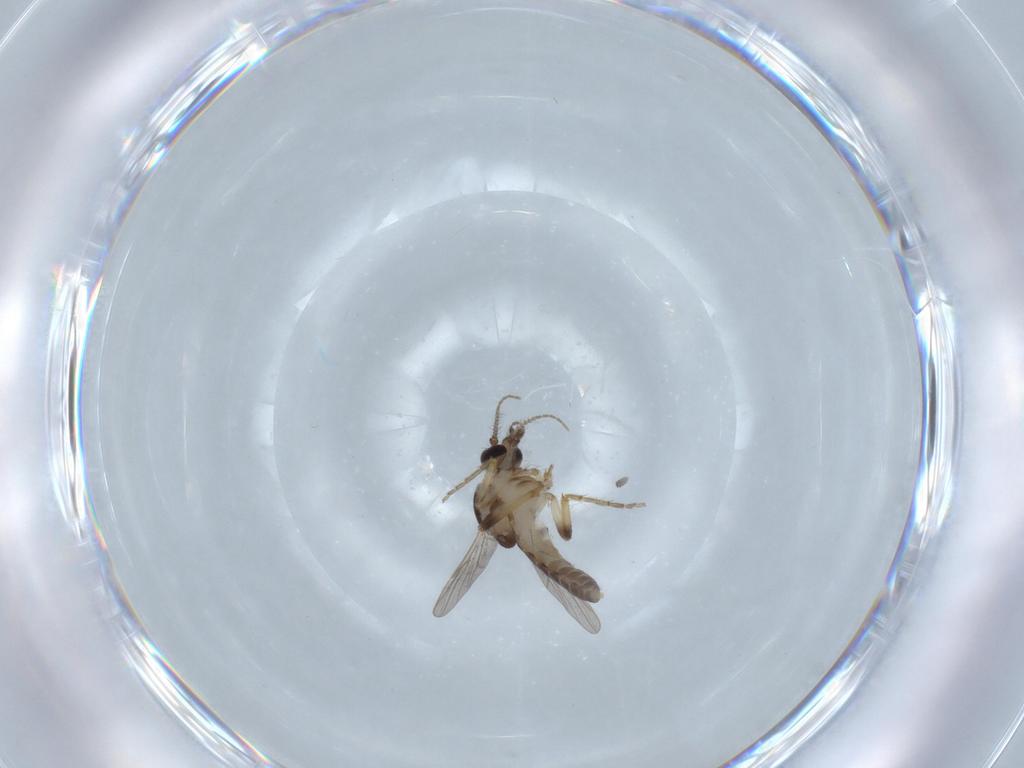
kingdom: Animalia
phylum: Arthropoda
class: Insecta
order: Diptera
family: Ceratopogonidae
